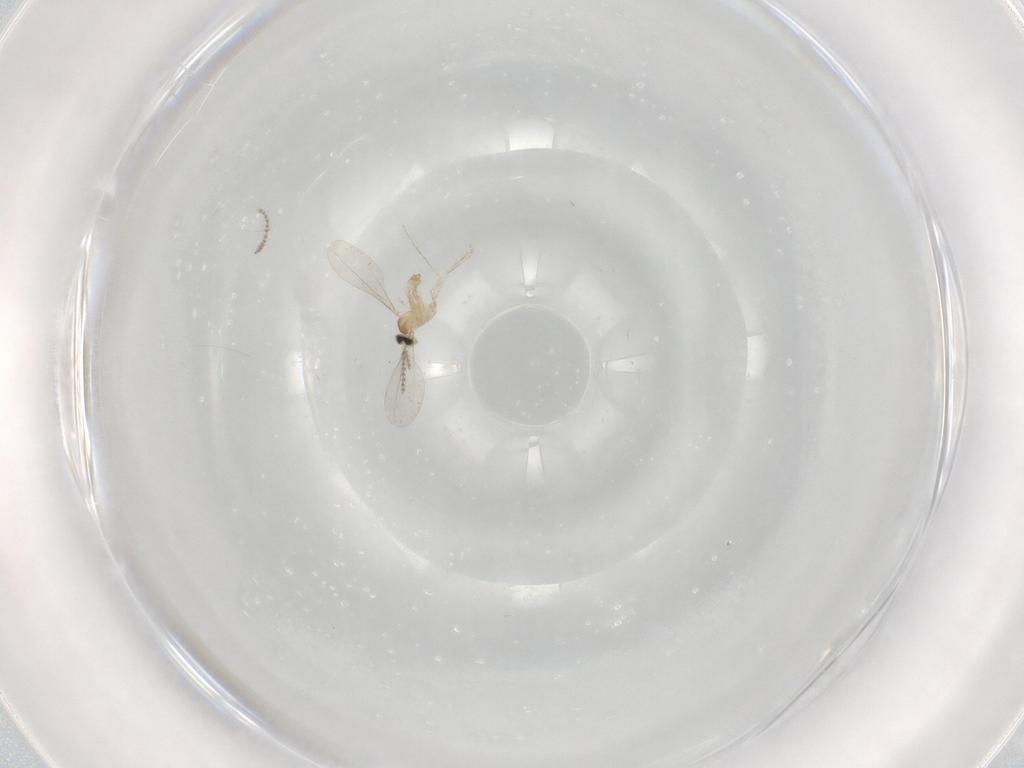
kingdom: Animalia
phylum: Arthropoda
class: Insecta
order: Diptera
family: Cecidomyiidae
